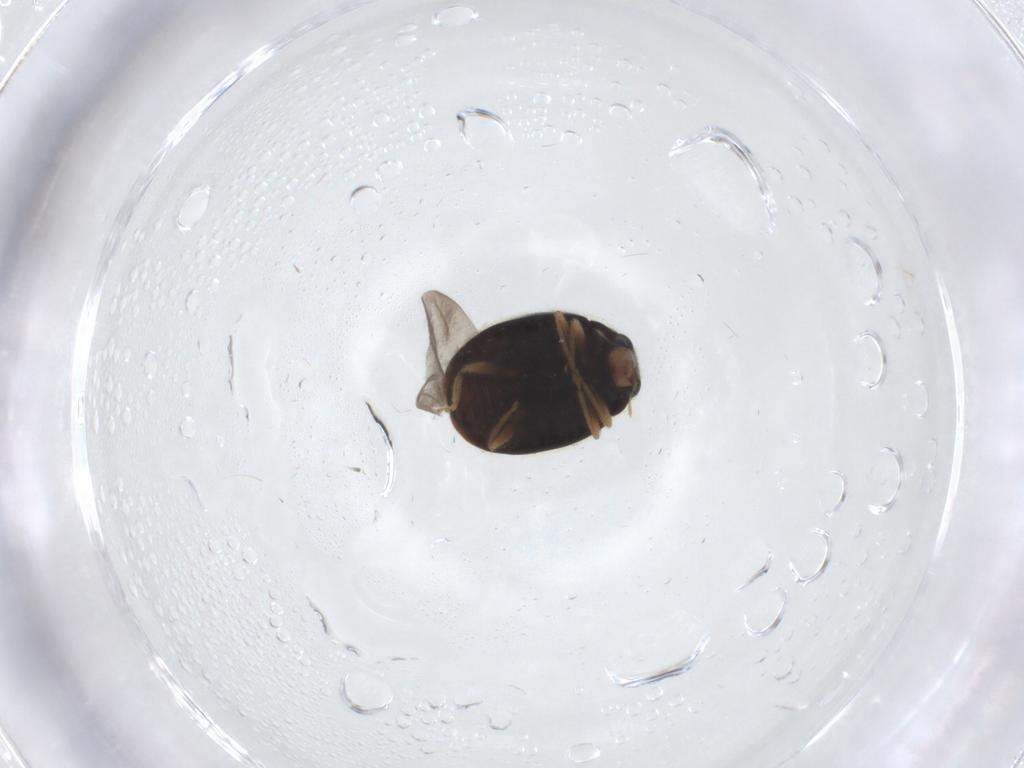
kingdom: Animalia
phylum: Arthropoda
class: Insecta
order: Coleoptera
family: Coccinellidae
